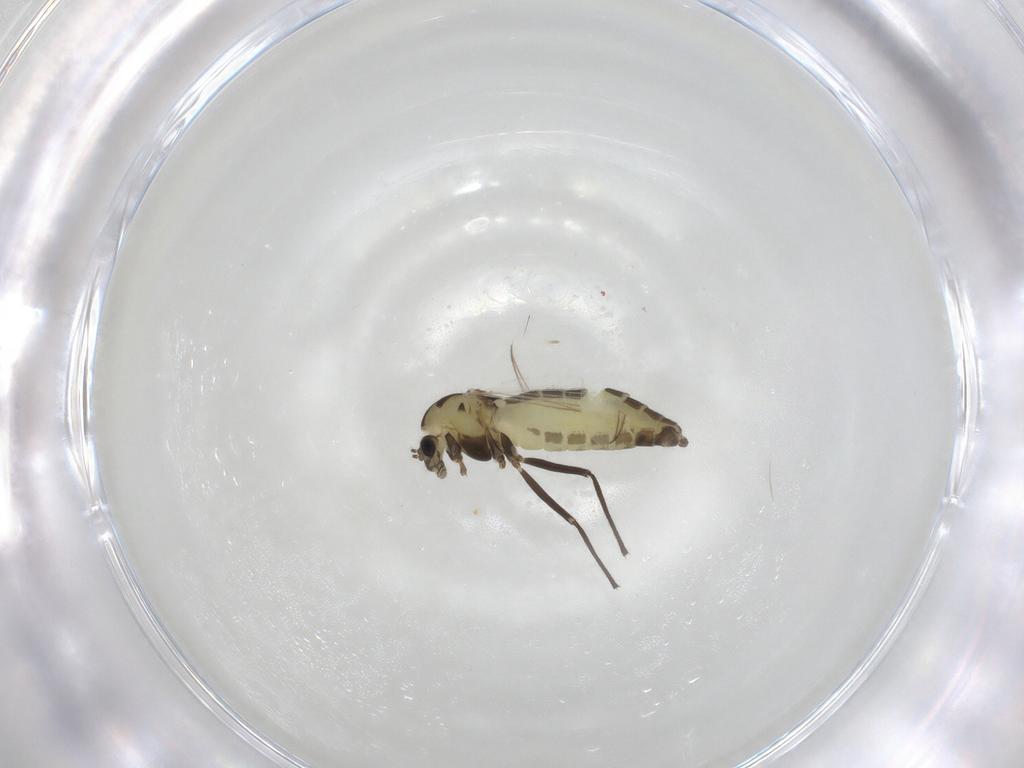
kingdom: Animalia
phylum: Arthropoda
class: Insecta
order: Diptera
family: Chironomidae
